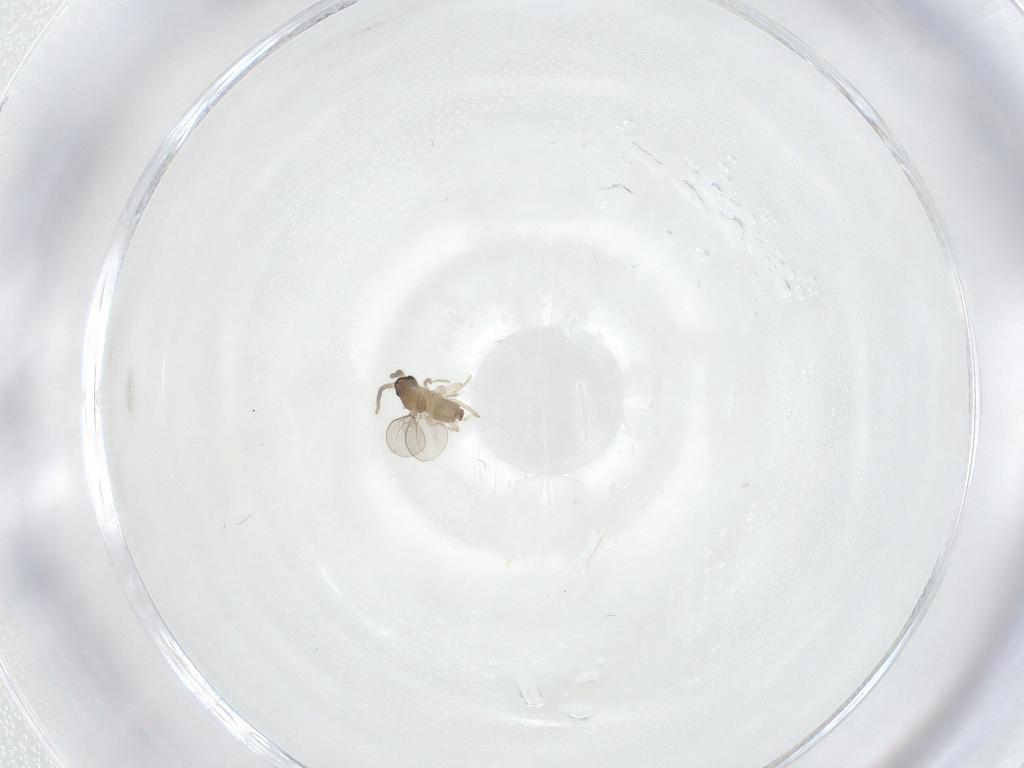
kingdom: Animalia
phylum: Arthropoda
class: Insecta
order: Diptera
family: Cecidomyiidae
